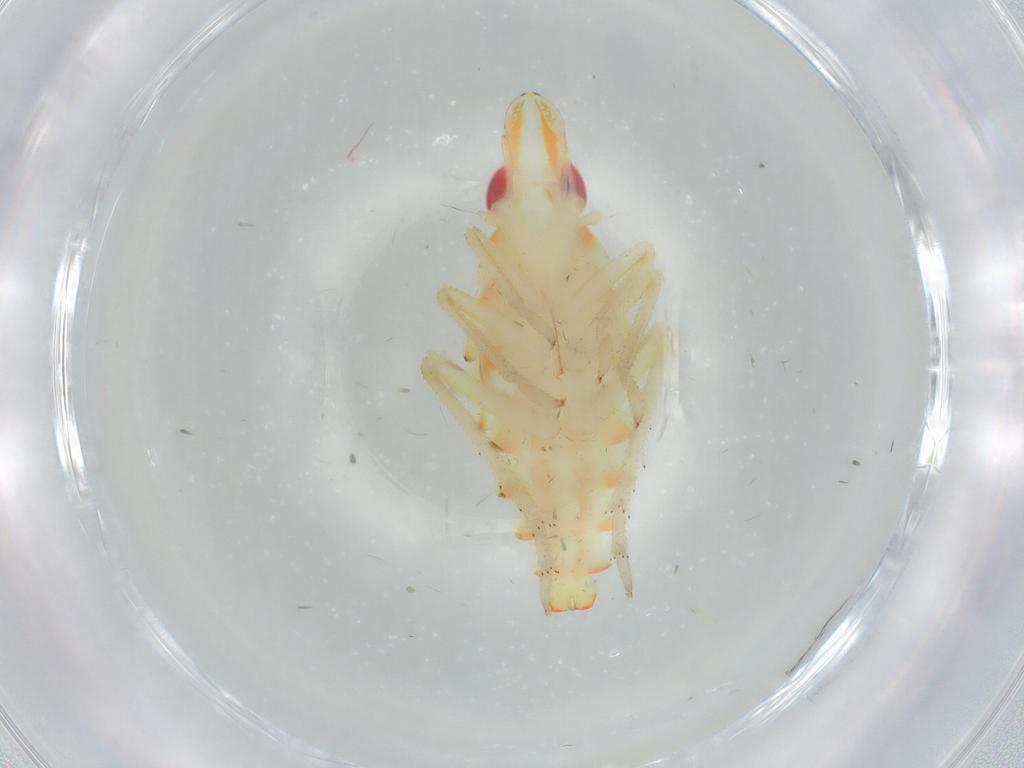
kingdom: Animalia
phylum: Arthropoda
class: Insecta
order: Hemiptera
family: Tropiduchidae
